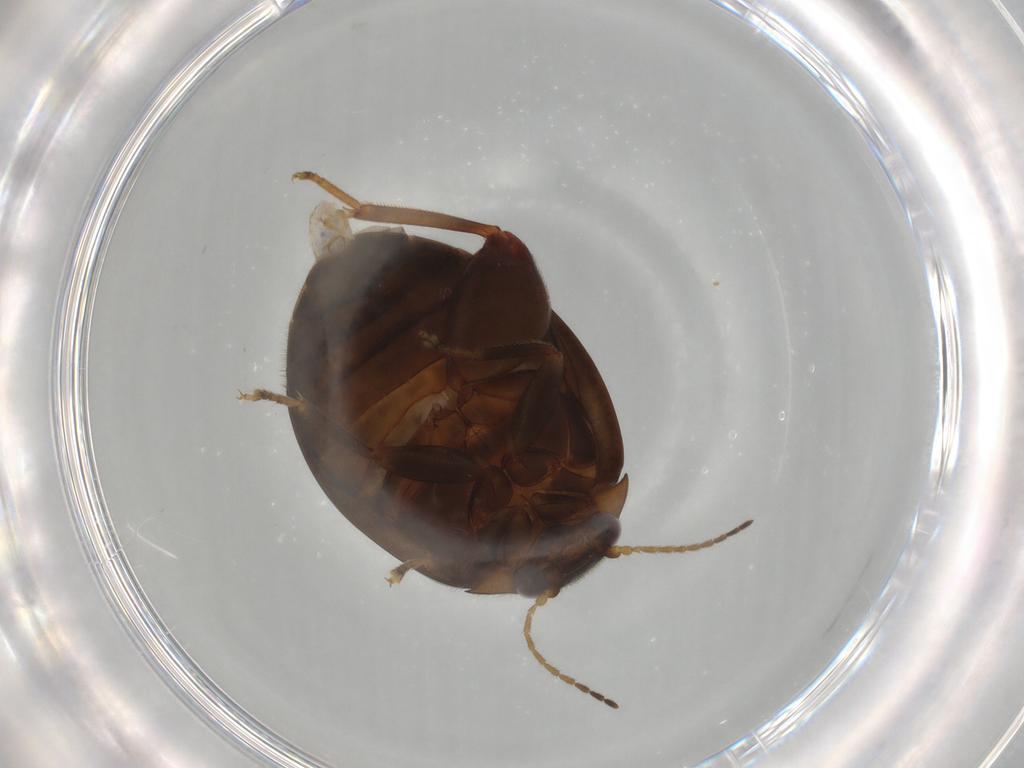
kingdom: Animalia
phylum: Arthropoda
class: Insecta
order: Coleoptera
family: Scirtidae
